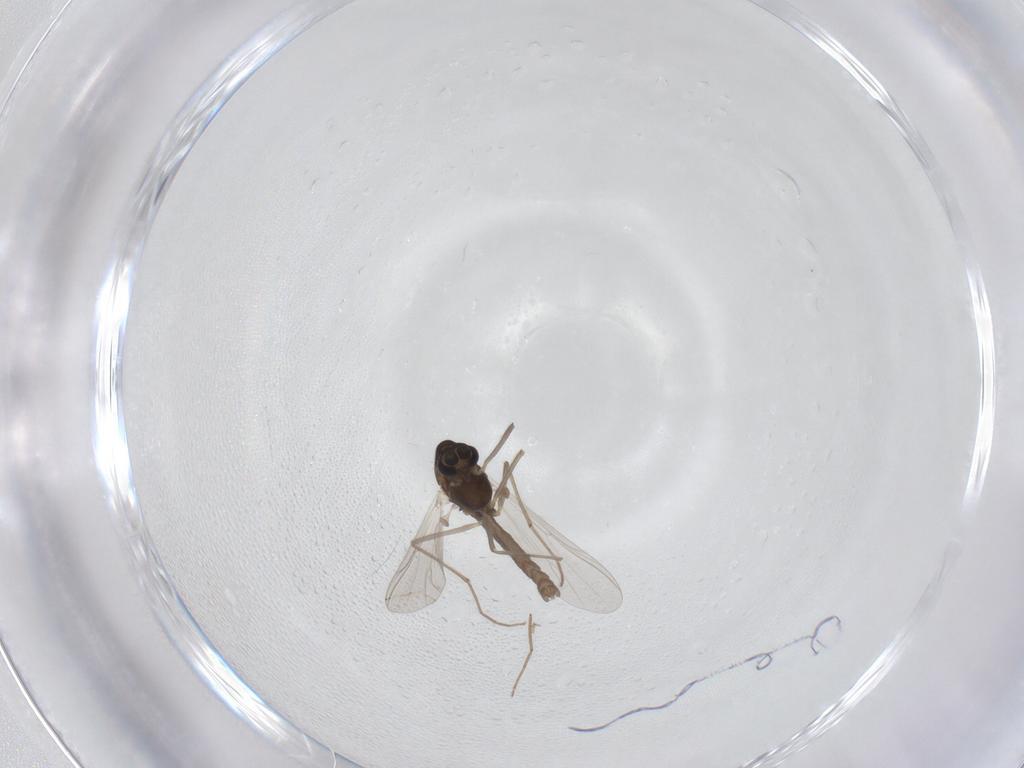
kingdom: Animalia
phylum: Arthropoda
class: Insecta
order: Diptera
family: Chironomidae
